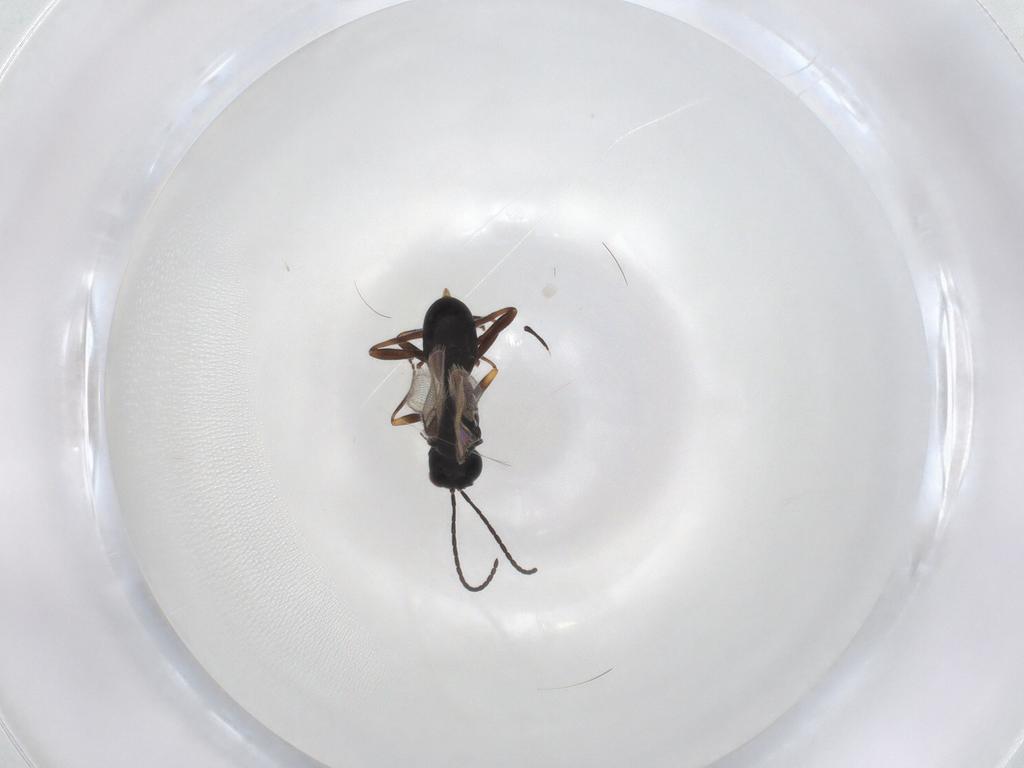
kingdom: Animalia
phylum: Arthropoda
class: Insecta
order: Hymenoptera
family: Braconidae
